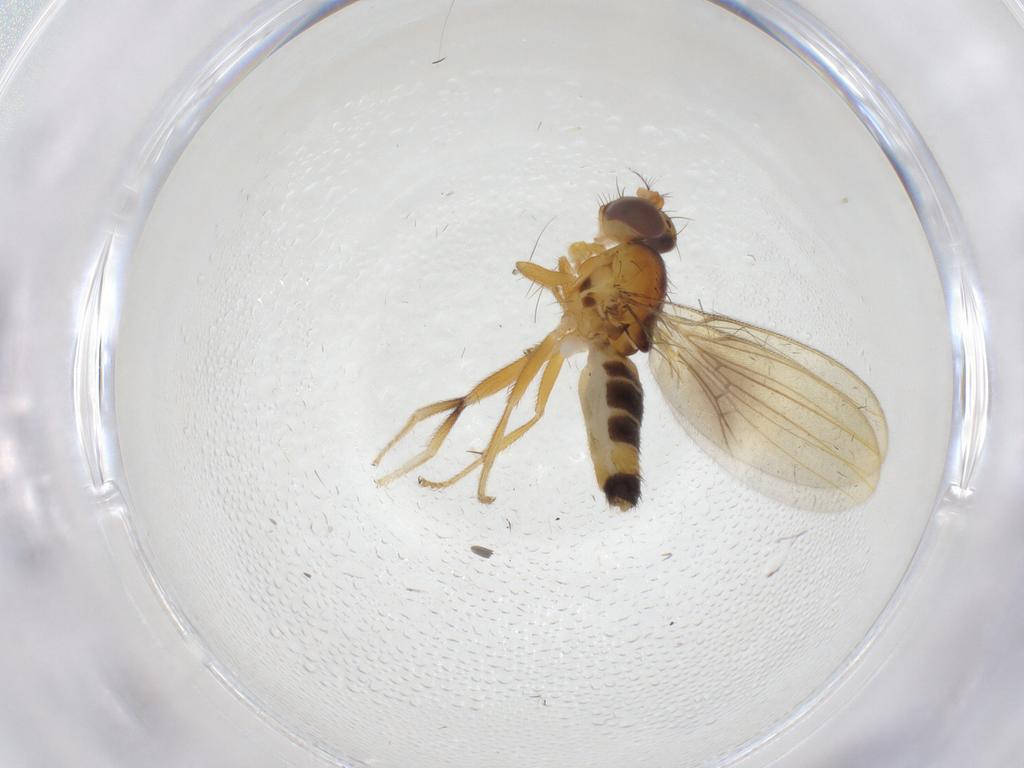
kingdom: Animalia
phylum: Arthropoda
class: Insecta
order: Diptera
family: Periscelididae
